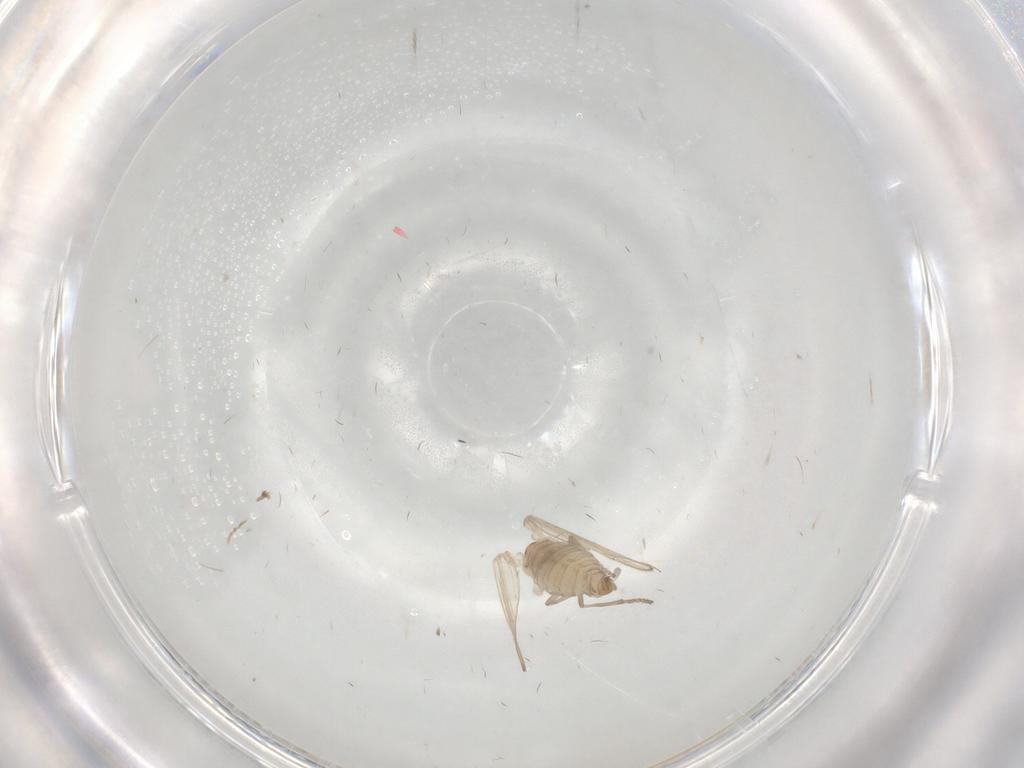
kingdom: Animalia
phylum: Arthropoda
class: Insecta
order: Diptera
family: Psychodidae
